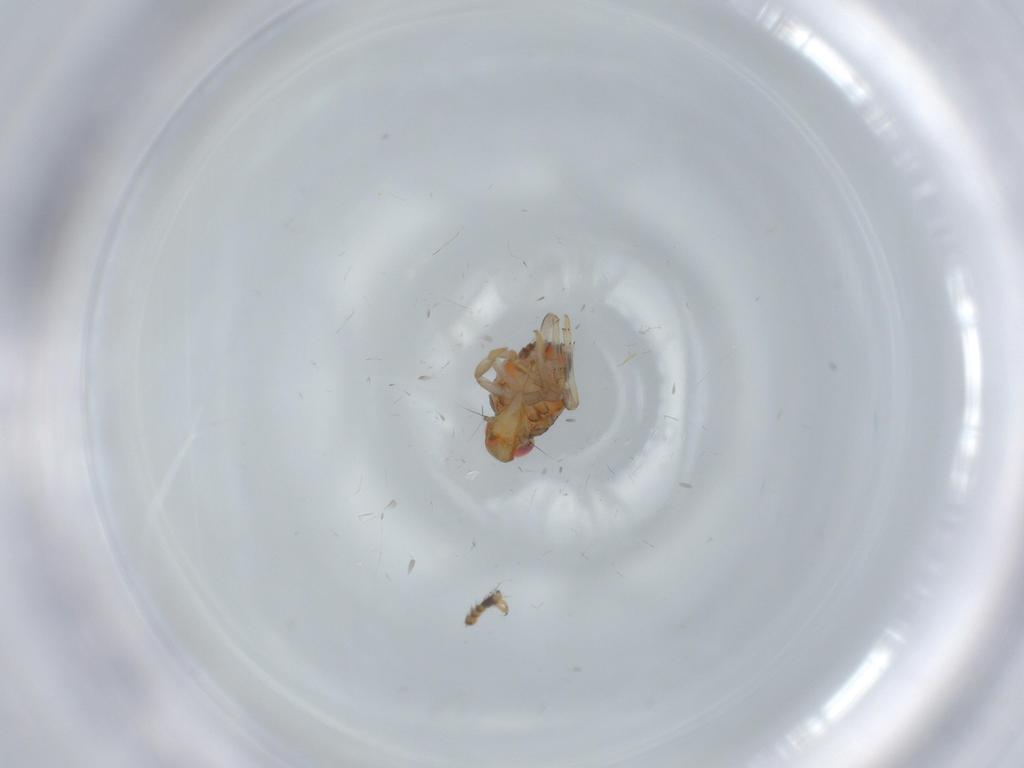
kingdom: Animalia
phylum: Arthropoda
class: Insecta
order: Hemiptera
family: Issidae
